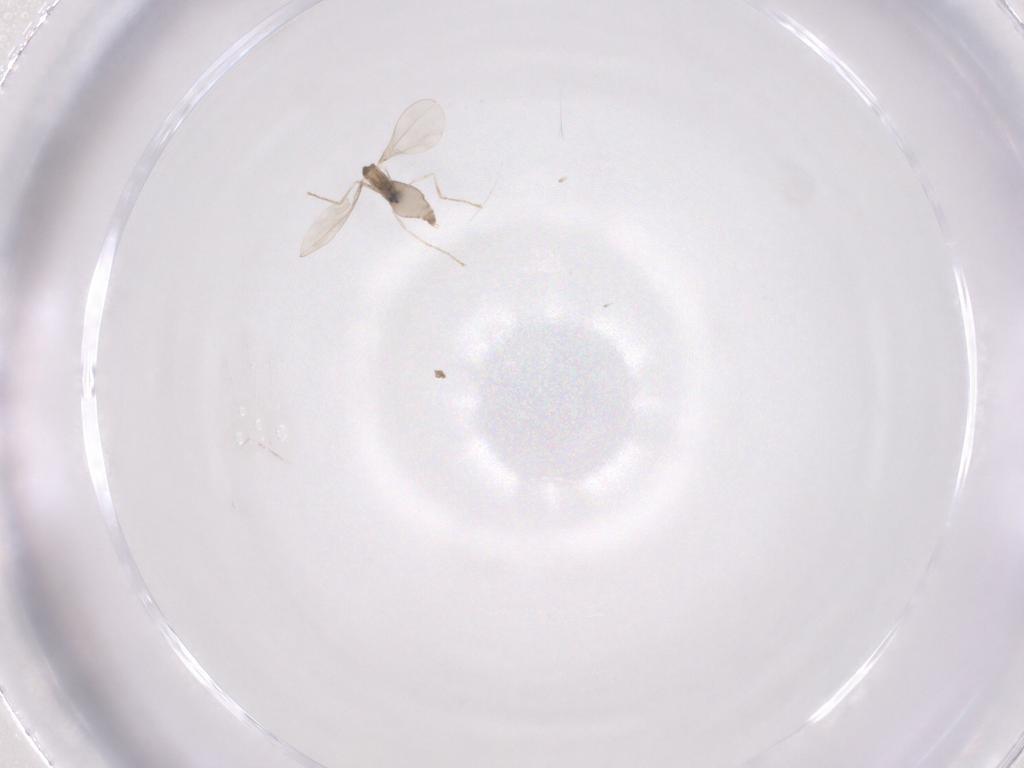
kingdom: Animalia
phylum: Arthropoda
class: Insecta
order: Diptera
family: Cecidomyiidae
